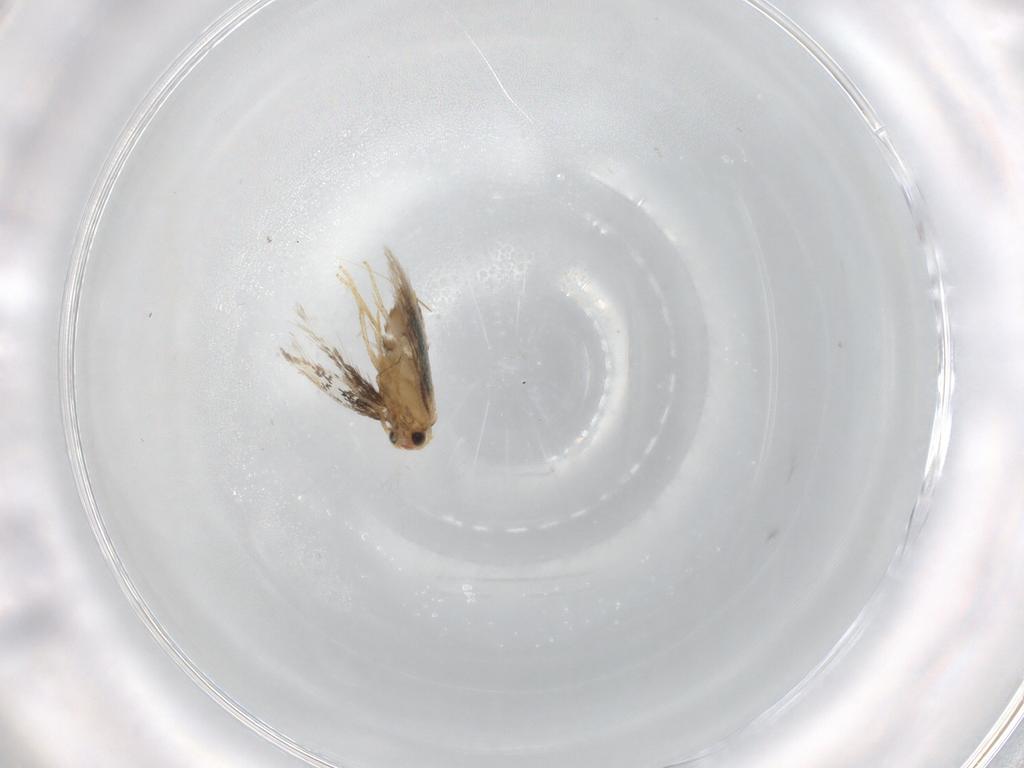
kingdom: Animalia
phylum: Arthropoda
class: Insecta
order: Lepidoptera
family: Nepticulidae
